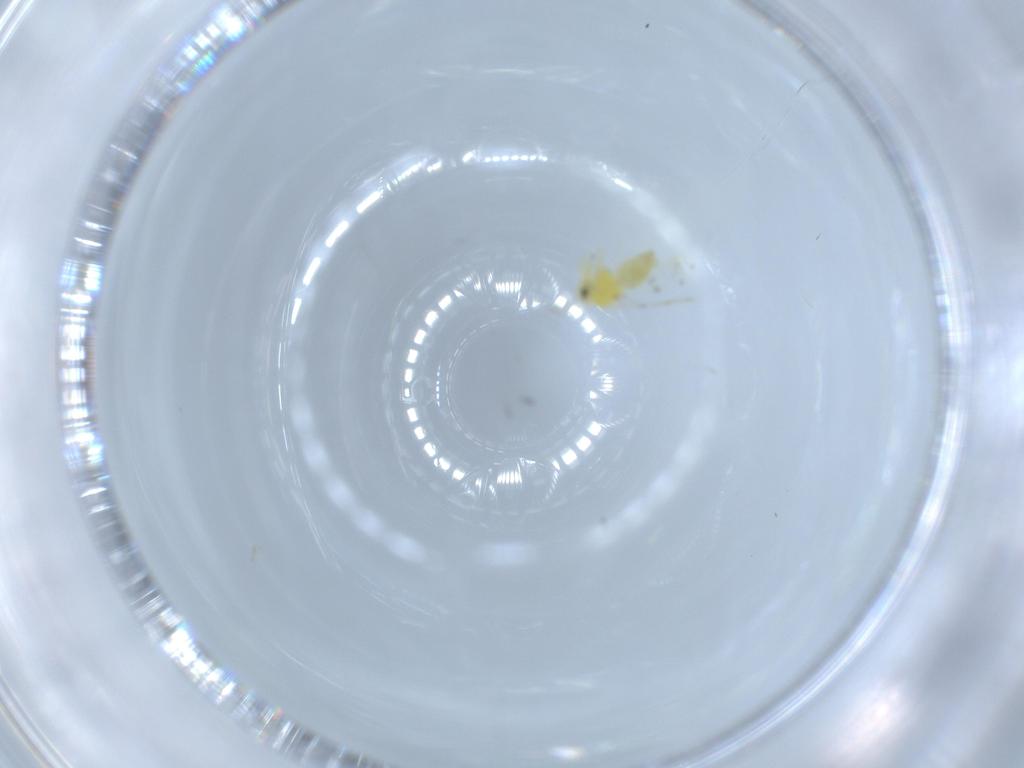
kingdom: Animalia
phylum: Arthropoda
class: Insecta
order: Hemiptera
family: Aleyrodidae
